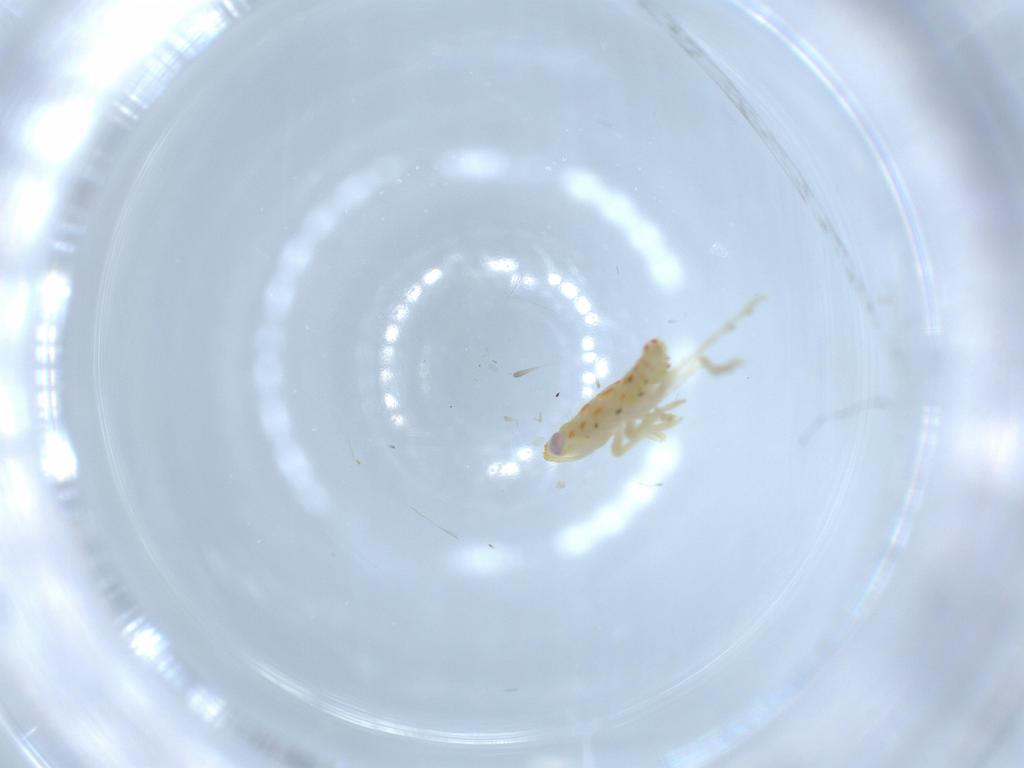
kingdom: Animalia
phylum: Arthropoda
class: Insecta
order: Hemiptera
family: Tropiduchidae
